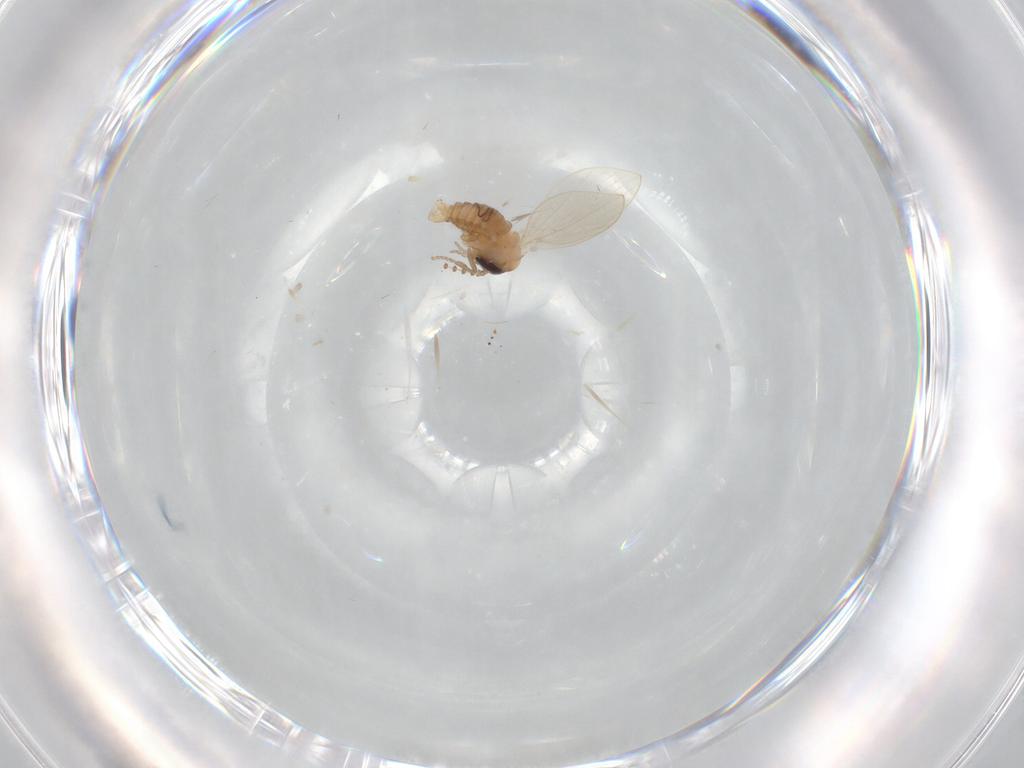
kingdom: Animalia
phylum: Arthropoda
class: Insecta
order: Diptera
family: Psychodidae
